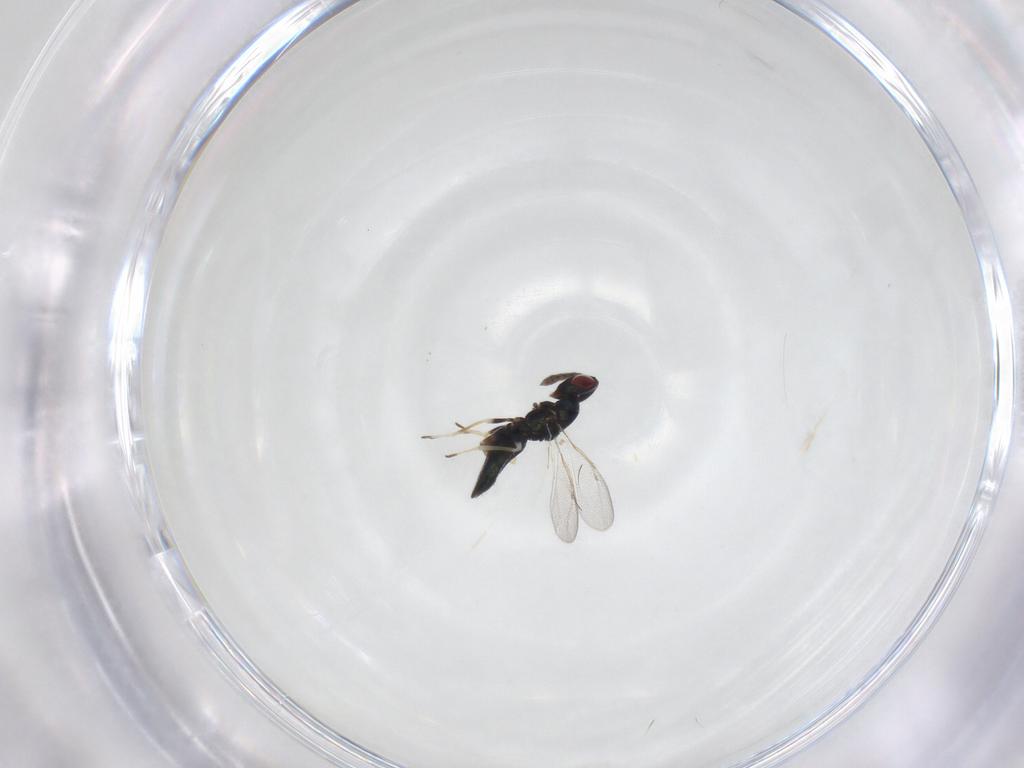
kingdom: Animalia
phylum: Arthropoda
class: Insecta
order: Hymenoptera
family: Eulophidae
